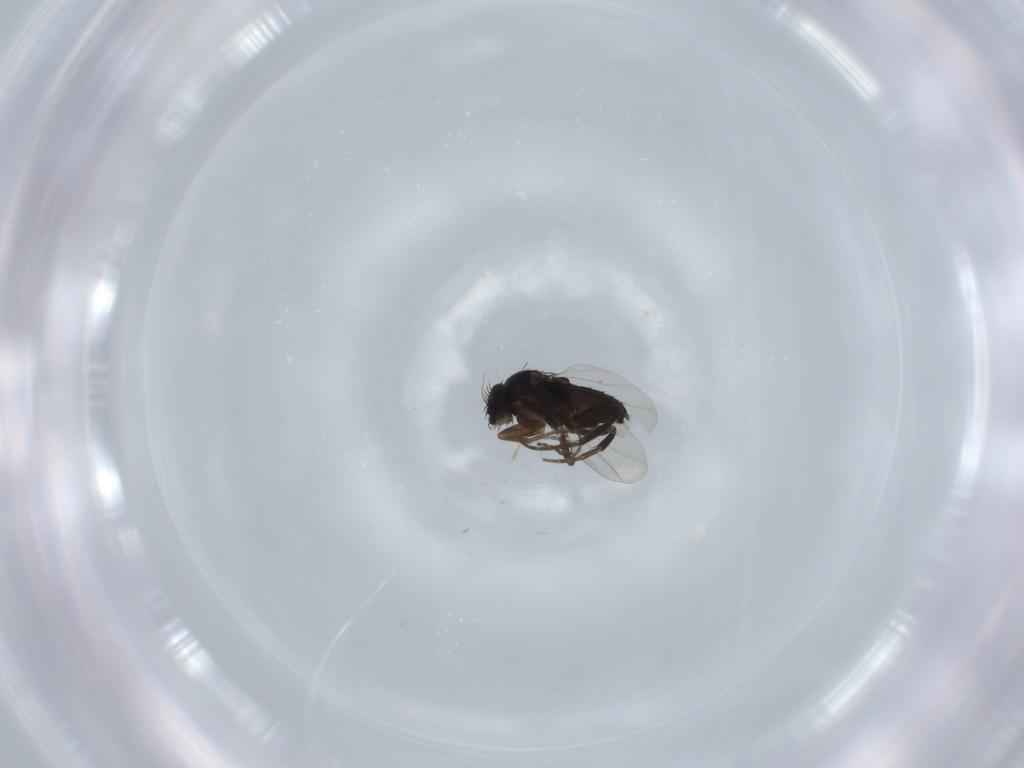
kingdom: Animalia
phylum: Arthropoda
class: Insecta
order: Diptera
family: Phoridae
